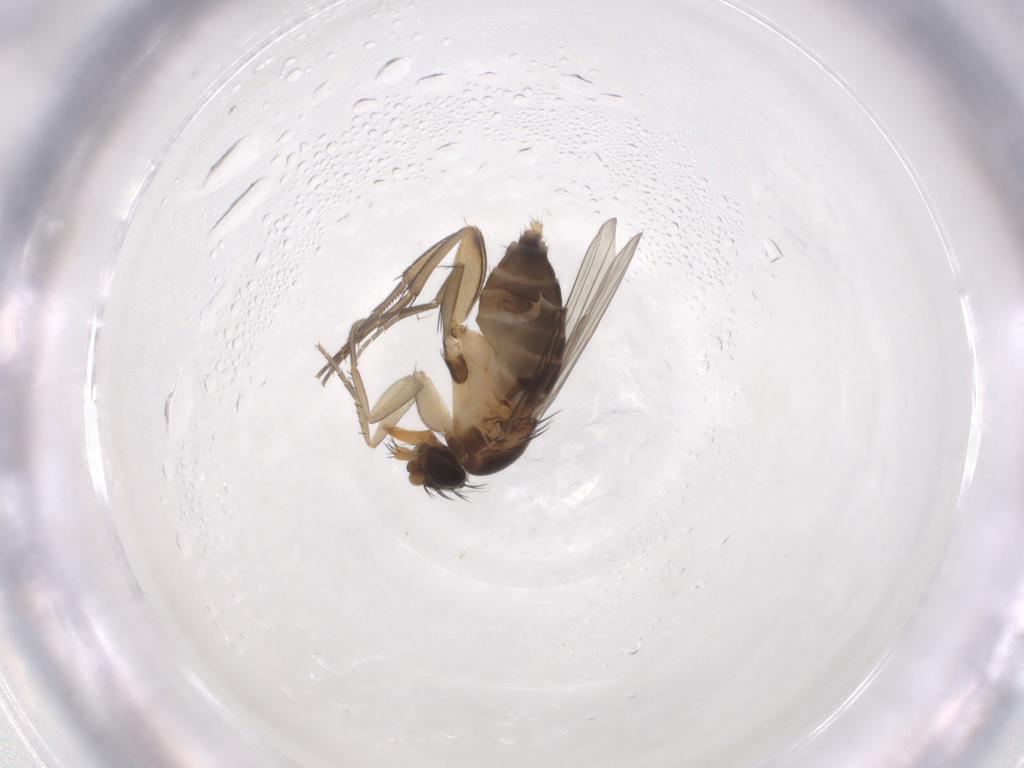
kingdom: Animalia
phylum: Arthropoda
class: Insecta
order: Diptera
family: Phoridae
